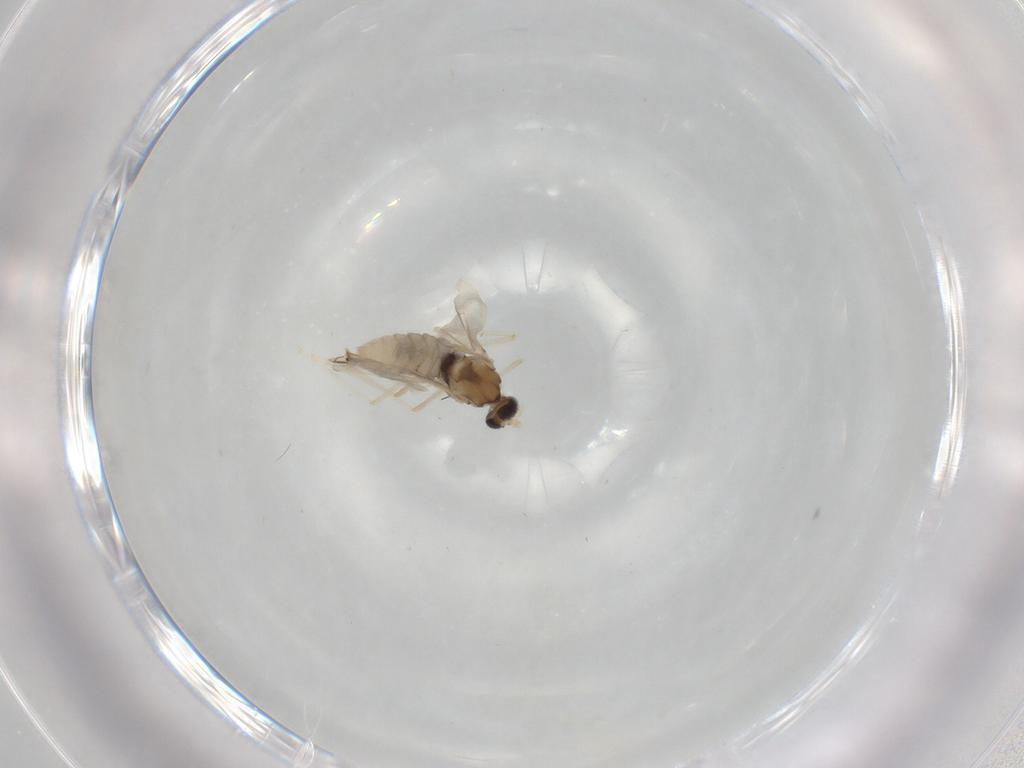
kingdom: Animalia
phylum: Arthropoda
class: Insecta
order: Diptera
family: Cecidomyiidae
